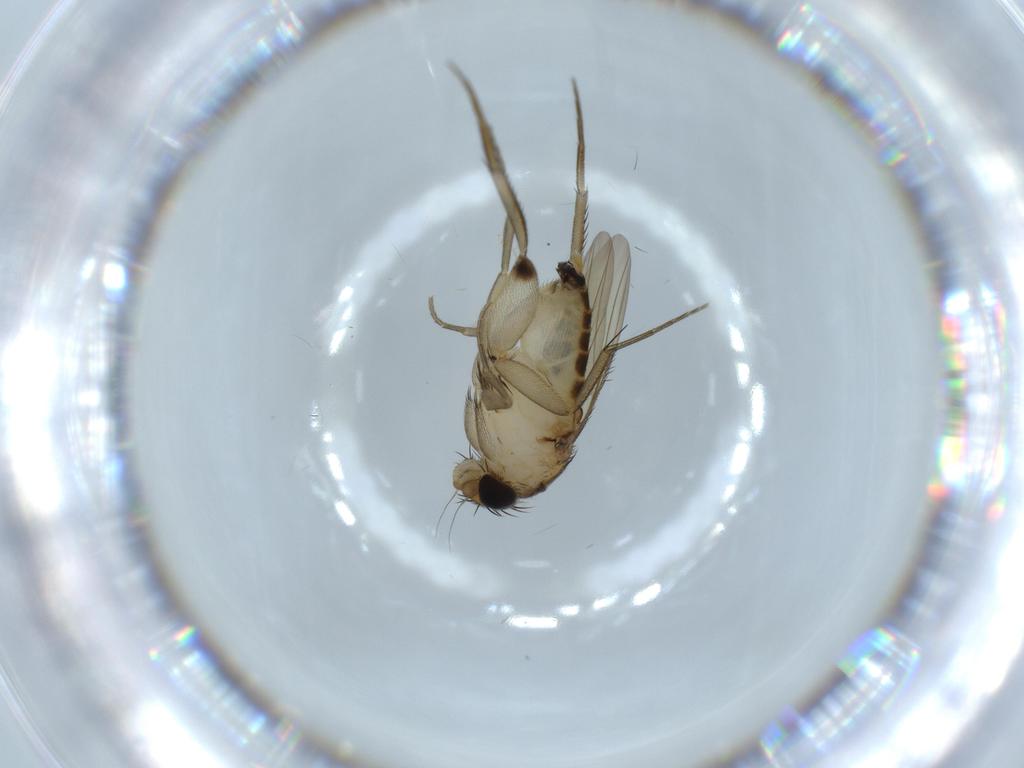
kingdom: Animalia
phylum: Arthropoda
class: Insecta
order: Diptera
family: Phoridae
